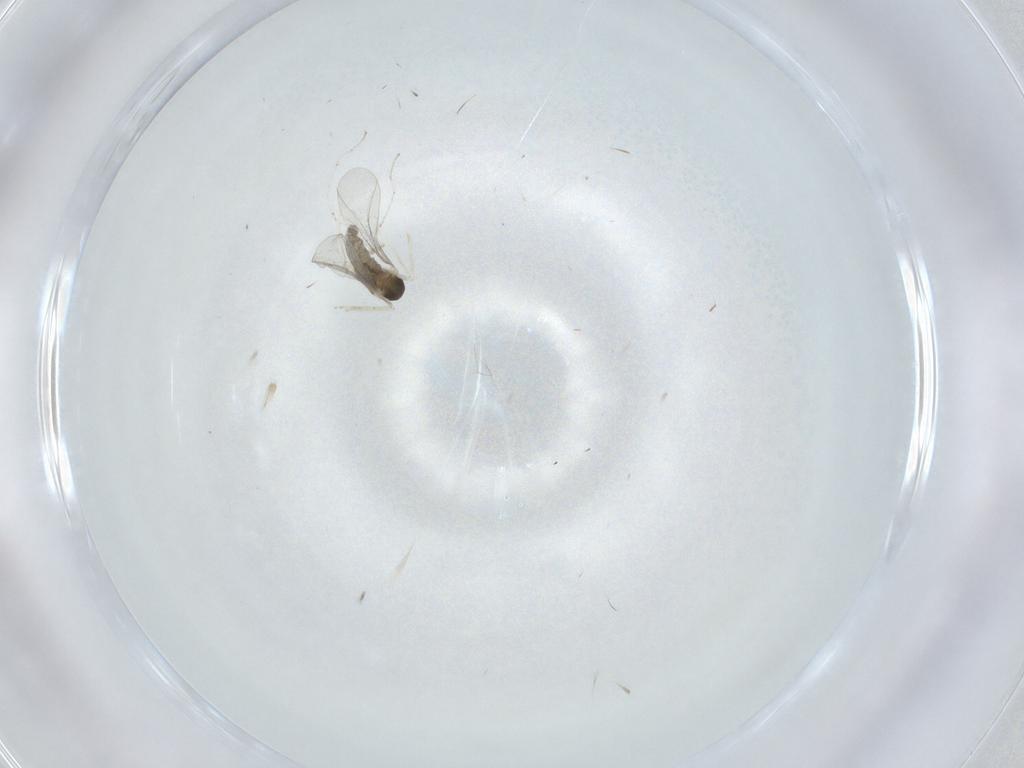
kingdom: Animalia
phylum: Arthropoda
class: Insecta
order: Diptera
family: Cecidomyiidae
